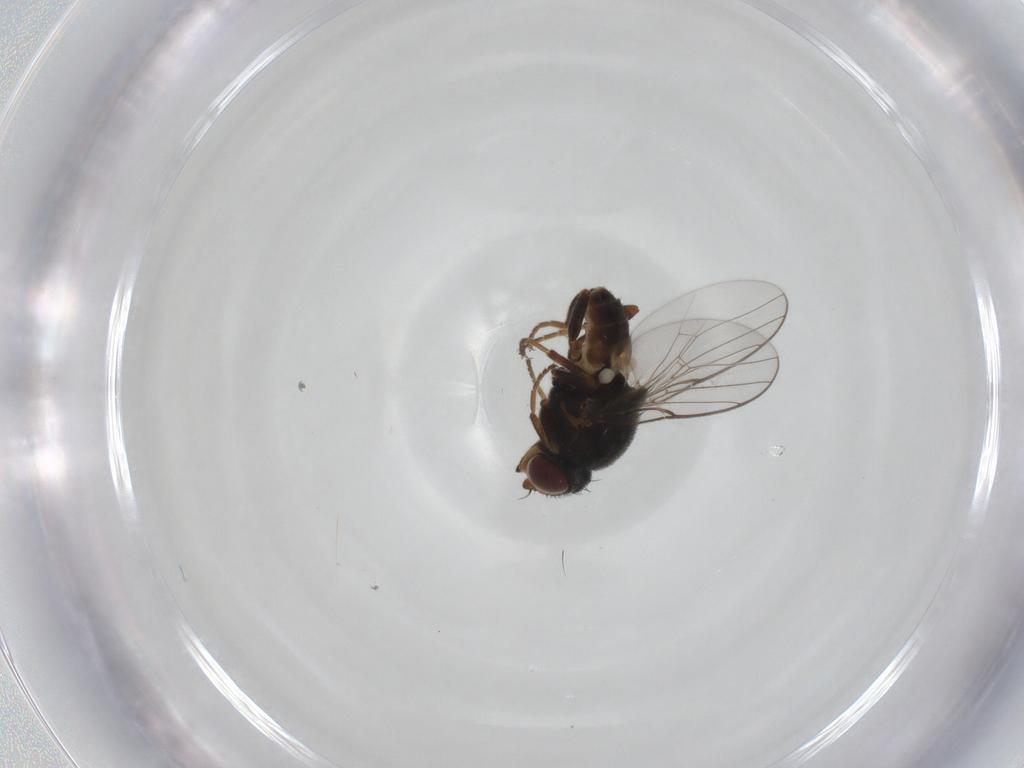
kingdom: Animalia
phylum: Arthropoda
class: Insecta
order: Diptera
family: Chloropidae
